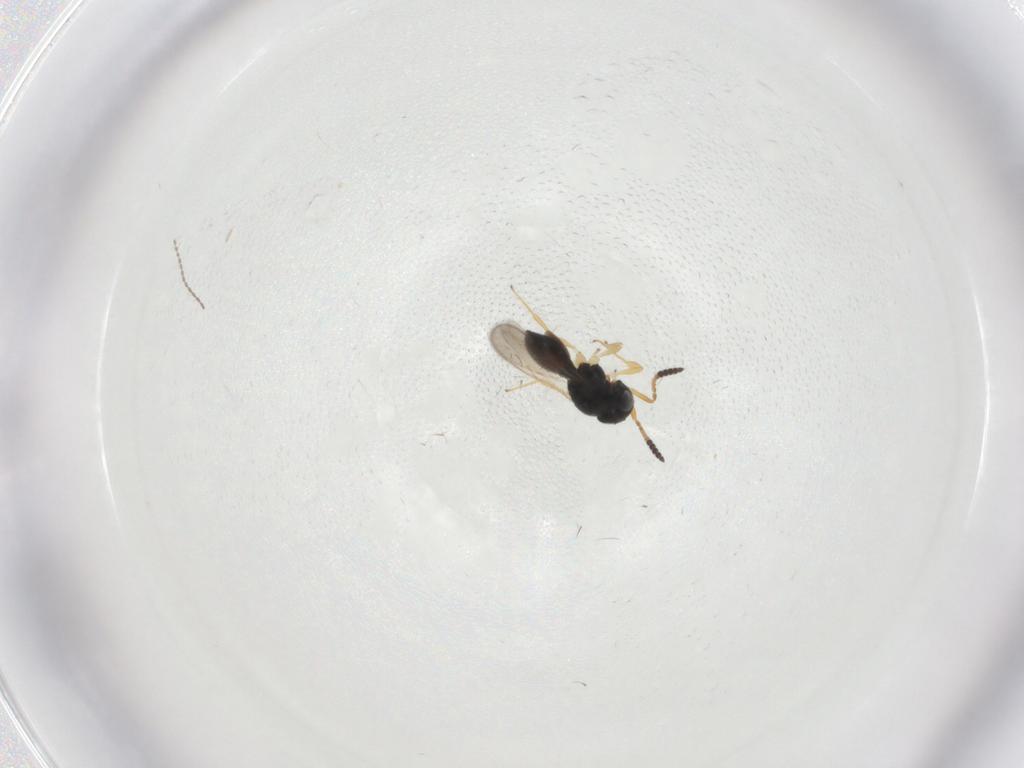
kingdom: Animalia
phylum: Arthropoda
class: Insecta
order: Hymenoptera
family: Scelionidae
